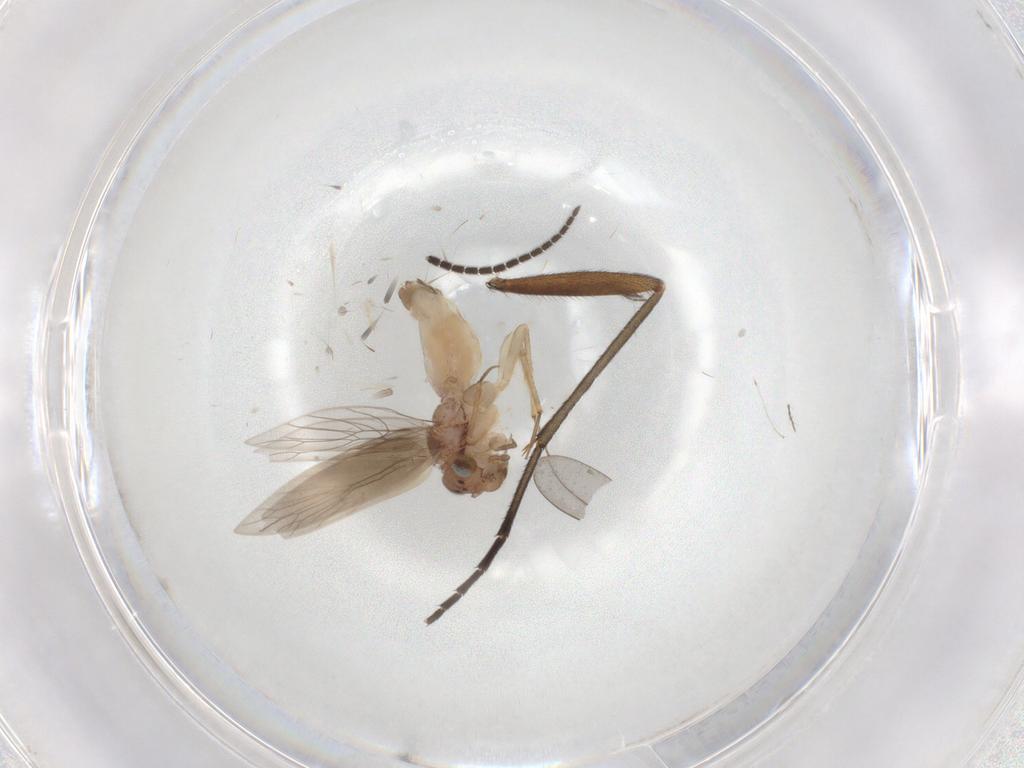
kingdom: Animalia
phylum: Arthropoda
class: Insecta
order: Psocodea
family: Lepidopsocidae
